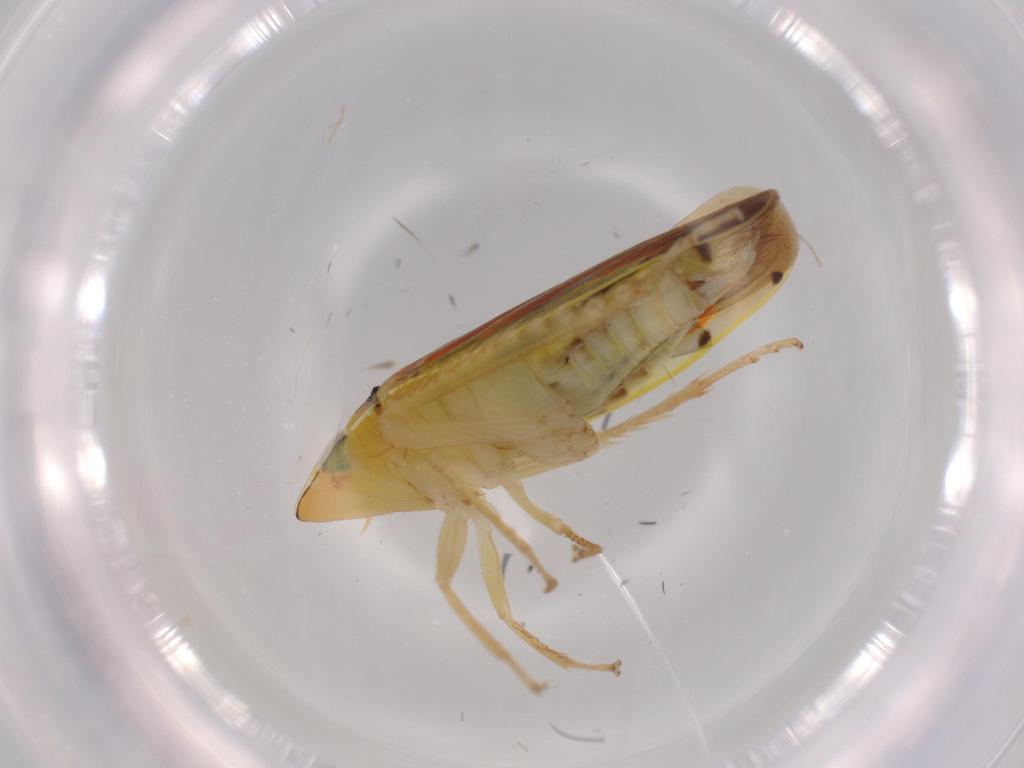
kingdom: Animalia
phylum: Arthropoda
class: Insecta
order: Hemiptera
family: Cicadellidae
